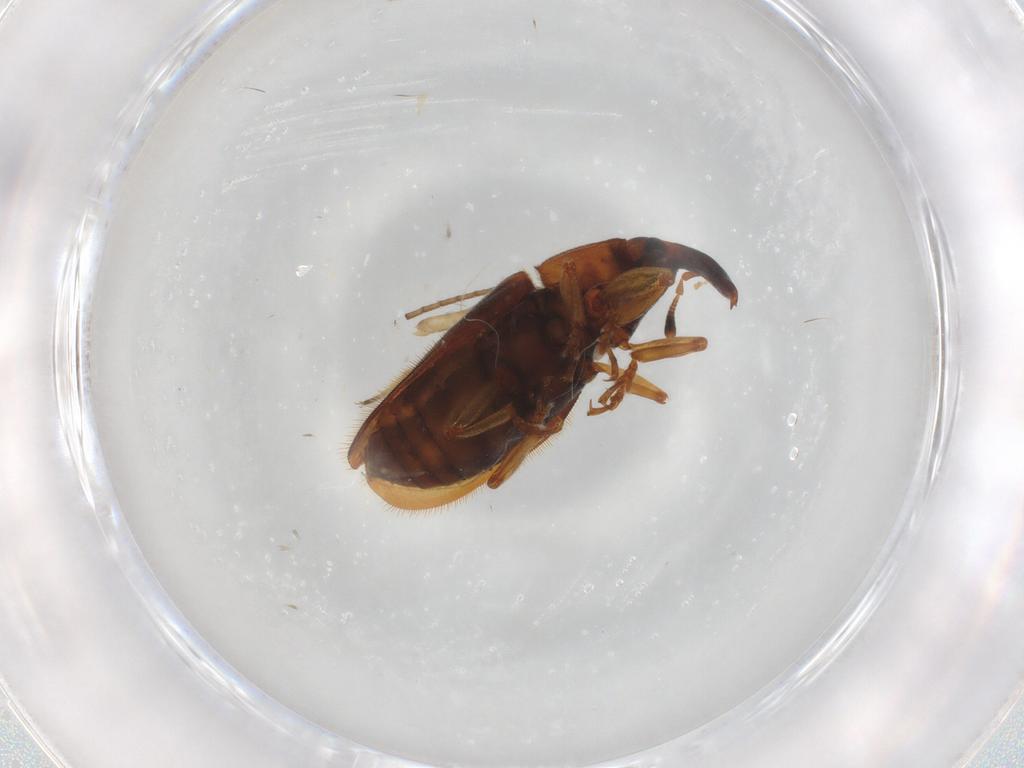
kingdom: Animalia
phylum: Arthropoda
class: Insecta
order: Coleoptera
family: Curculionidae
